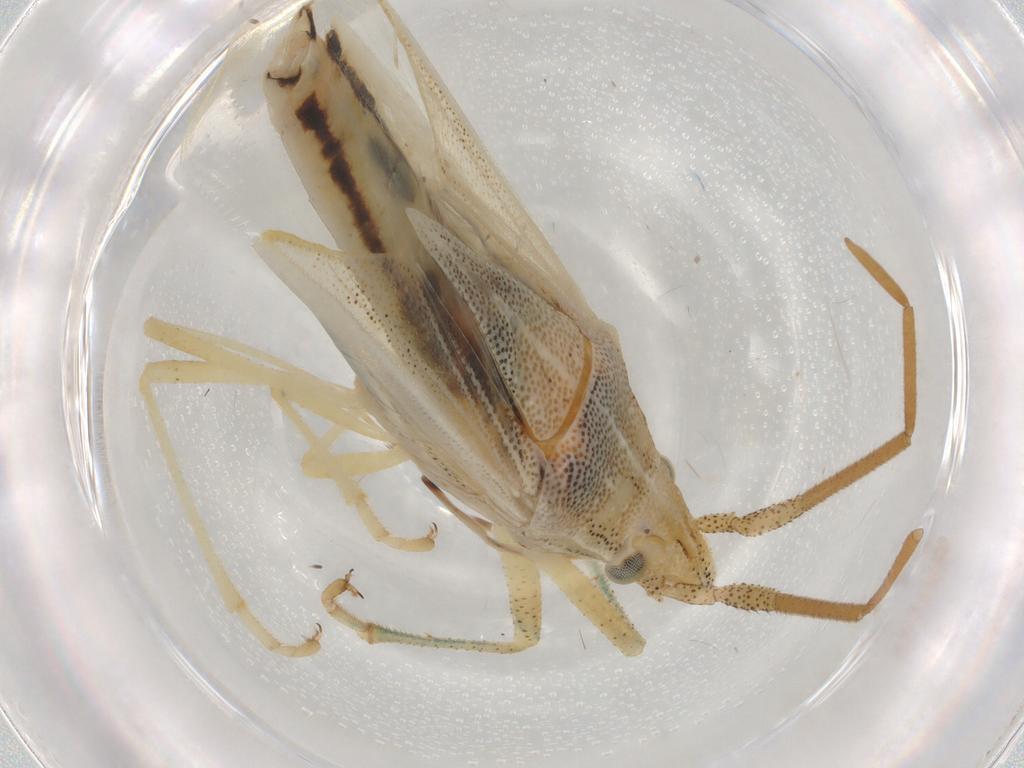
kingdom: Animalia
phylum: Arthropoda
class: Insecta
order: Hemiptera
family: Pentatomidae
